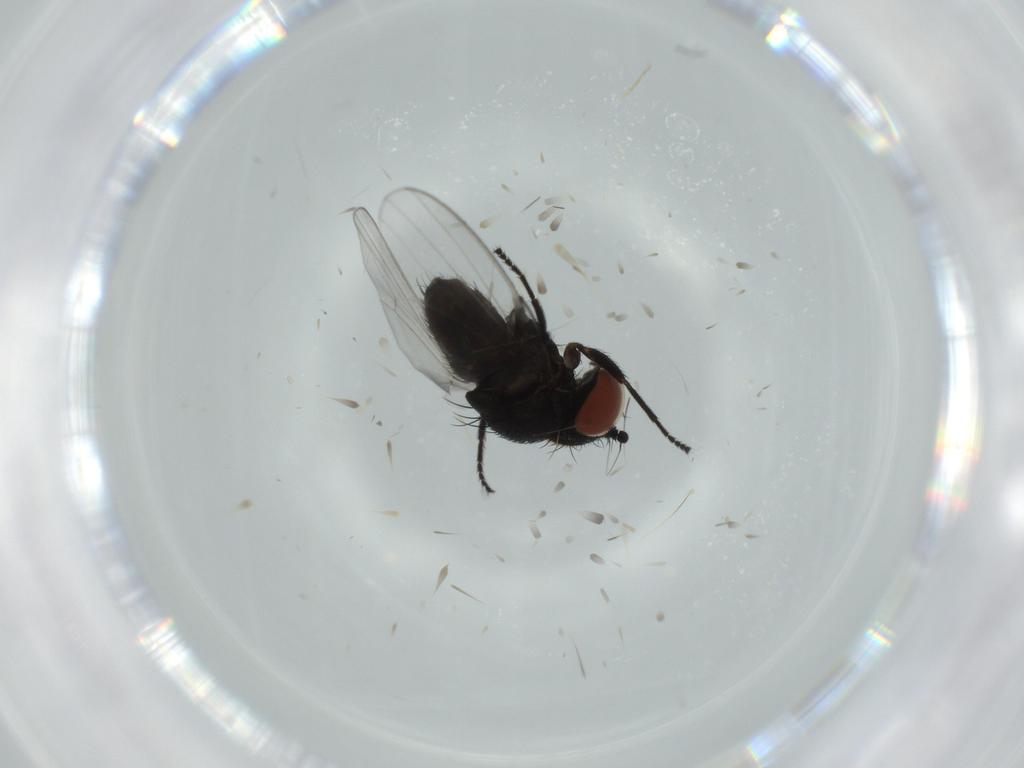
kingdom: Animalia
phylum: Arthropoda
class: Insecta
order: Diptera
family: Milichiidae
